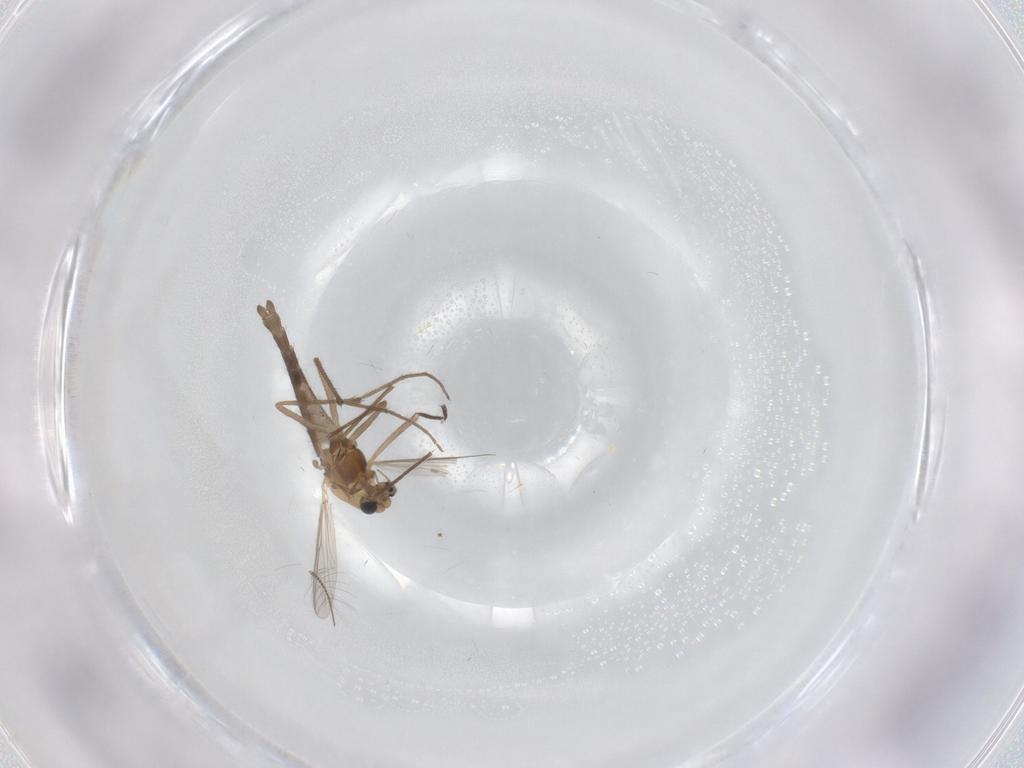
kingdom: Animalia
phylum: Arthropoda
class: Insecta
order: Diptera
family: Chironomidae
